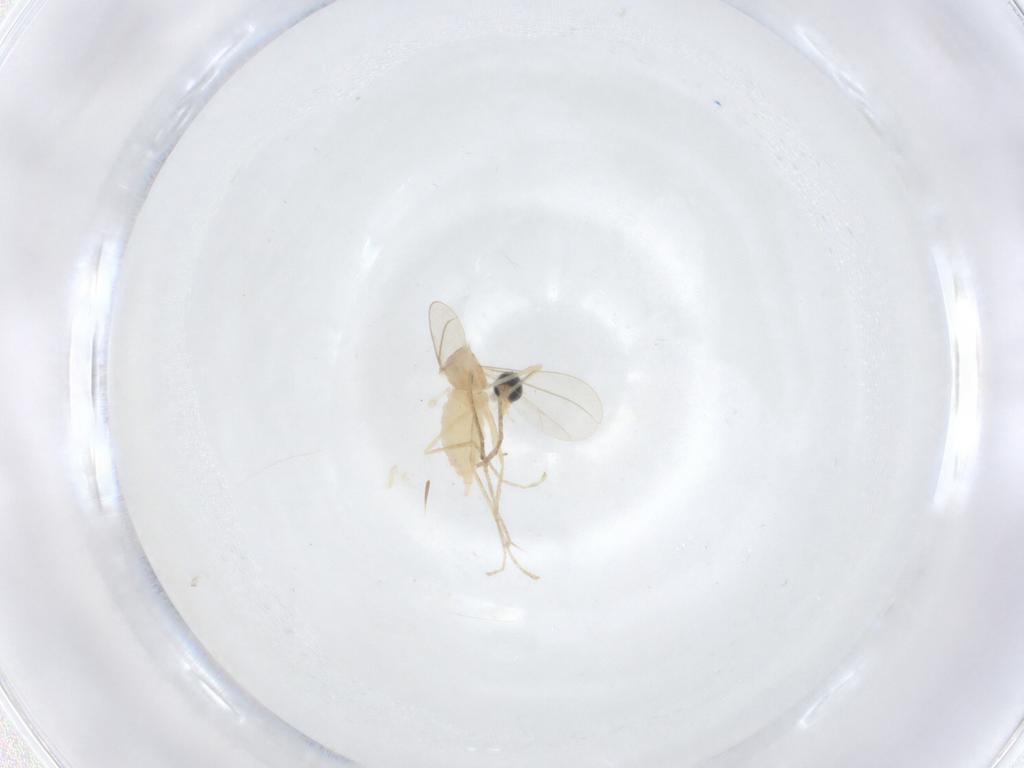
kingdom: Animalia
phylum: Arthropoda
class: Insecta
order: Diptera
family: Cecidomyiidae
